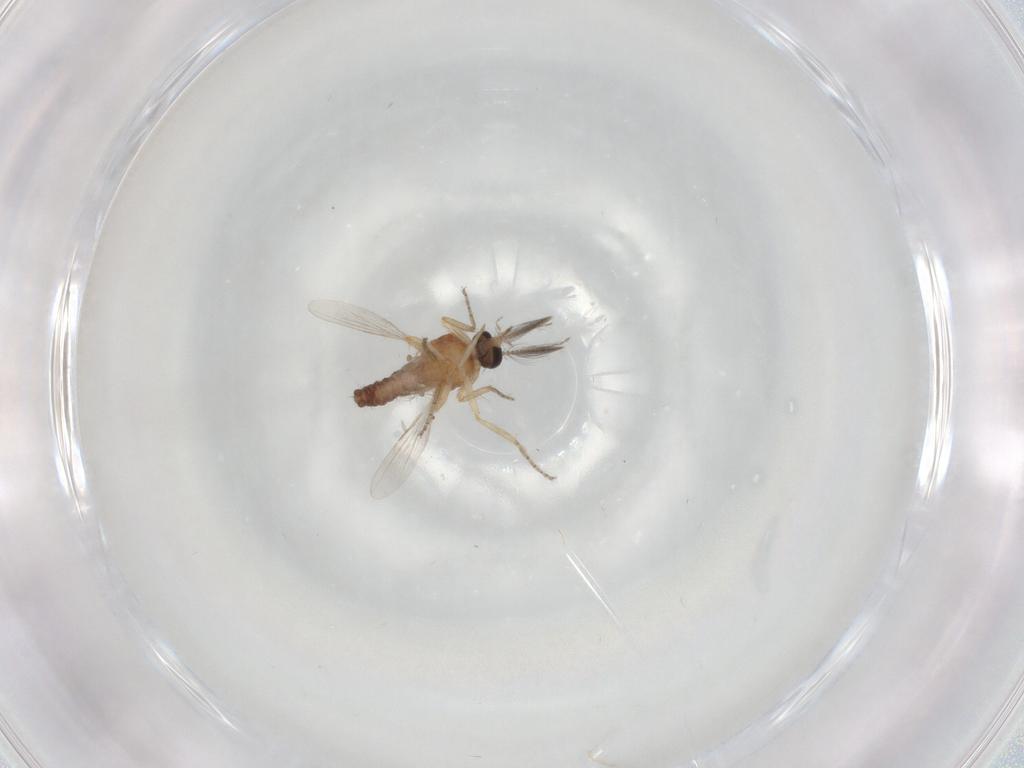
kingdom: Animalia
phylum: Arthropoda
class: Insecta
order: Diptera
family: Ceratopogonidae
